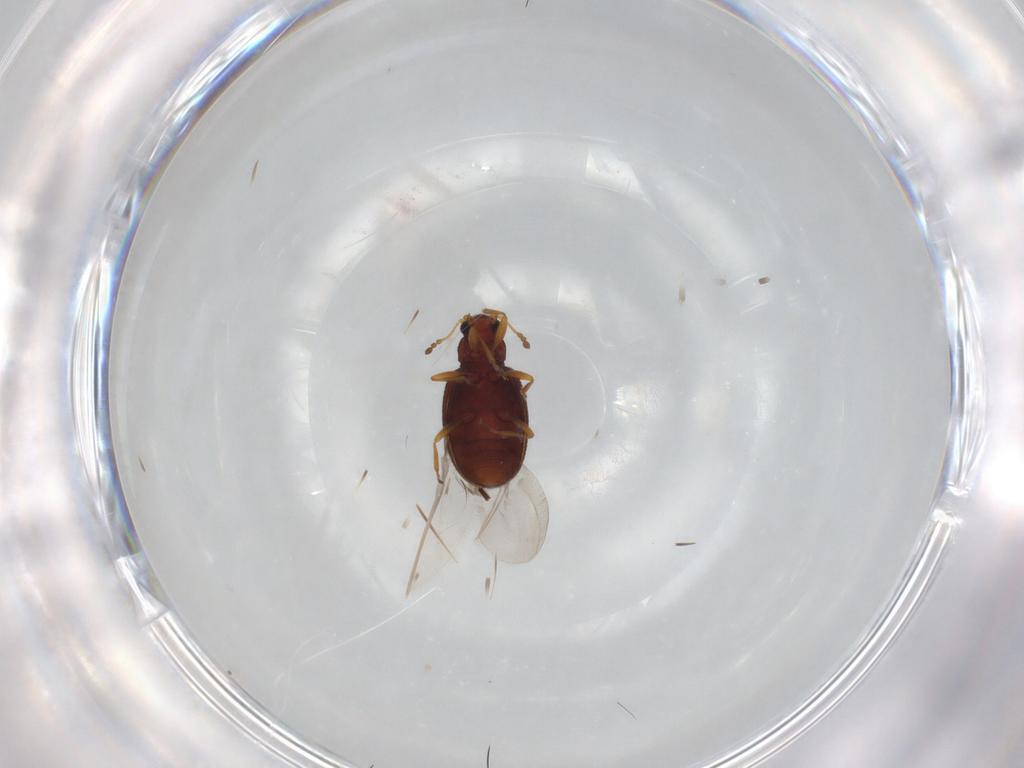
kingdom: Animalia
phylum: Arthropoda
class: Insecta
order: Coleoptera
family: Latridiidae
